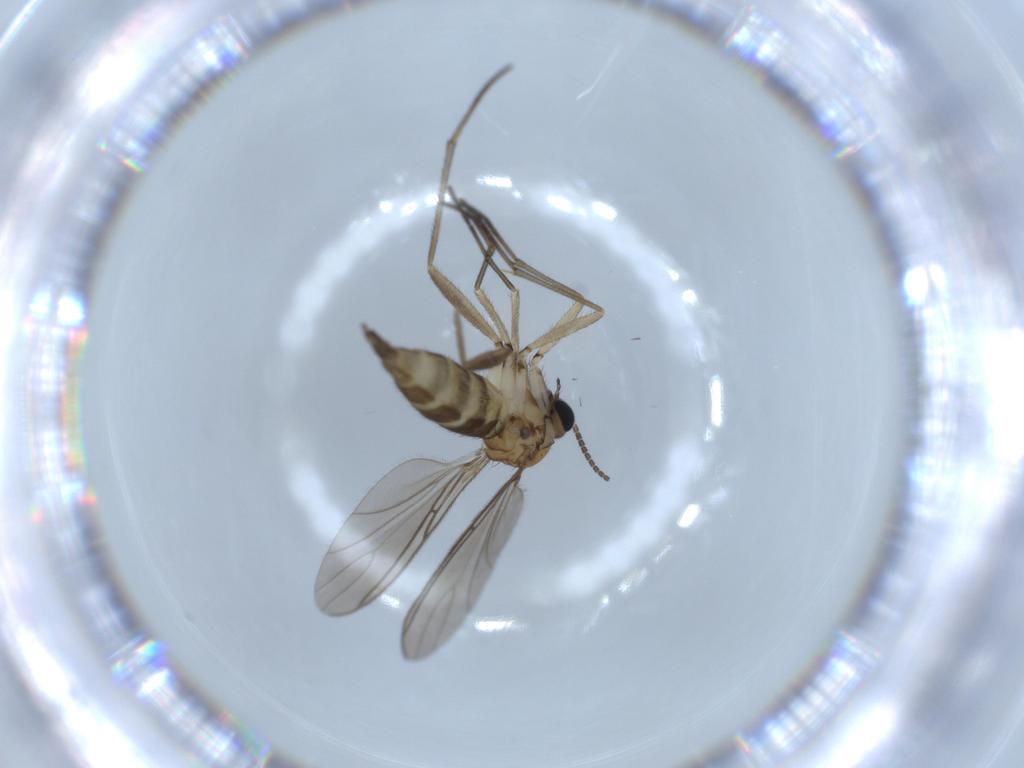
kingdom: Animalia
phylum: Arthropoda
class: Insecta
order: Diptera
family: Sciaridae
